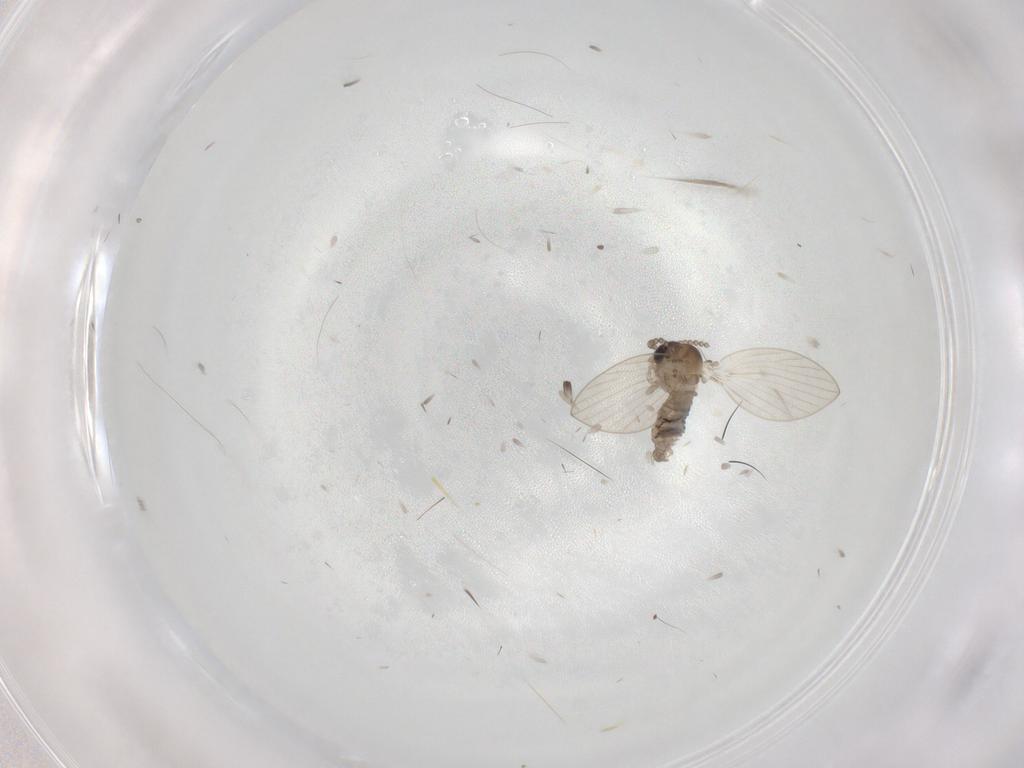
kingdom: Animalia
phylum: Arthropoda
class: Insecta
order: Diptera
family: Psychodidae
